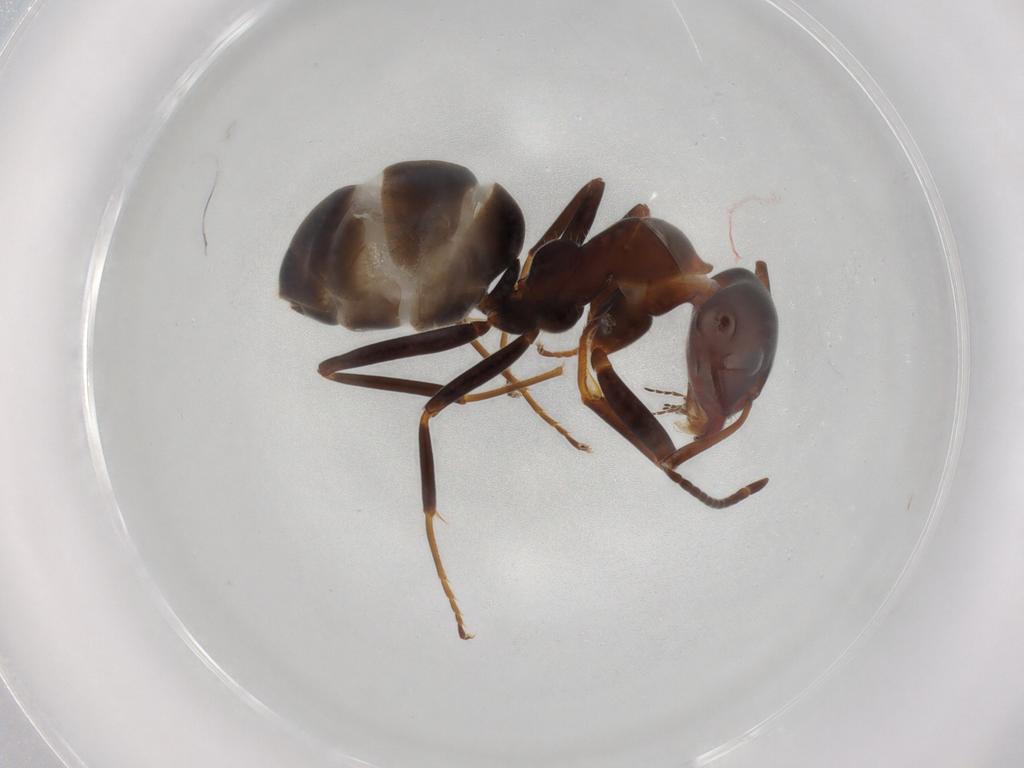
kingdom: Animalia
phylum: Arthropoda
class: Insecta
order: Hymenoptera
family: Formicidae
